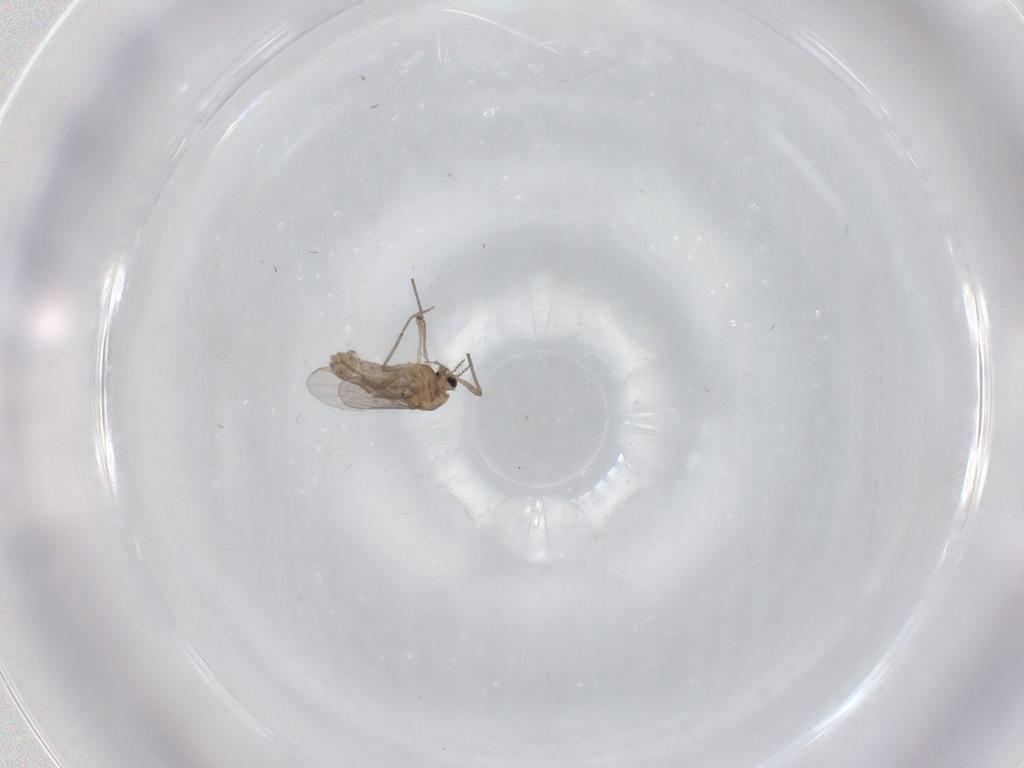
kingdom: Animalia
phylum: Arthropoda
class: Insecta
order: Diptera
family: Chironomidae
